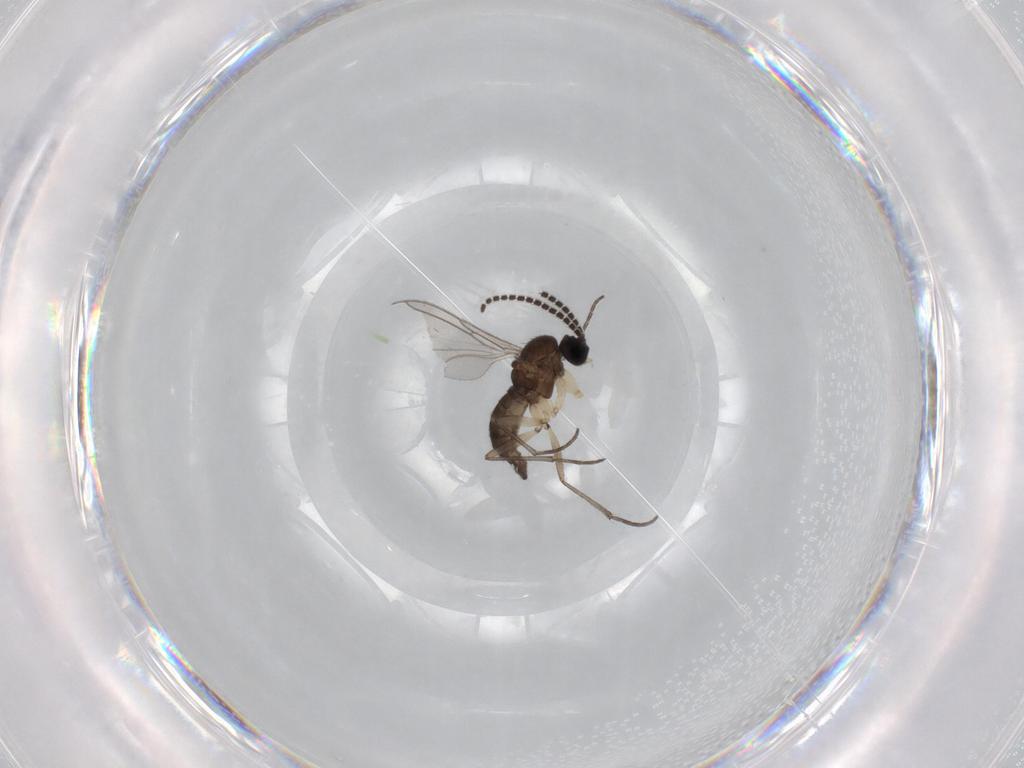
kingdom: Animalia
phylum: Arthropoda
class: Insecta
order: Diptera
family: Sciaridae
